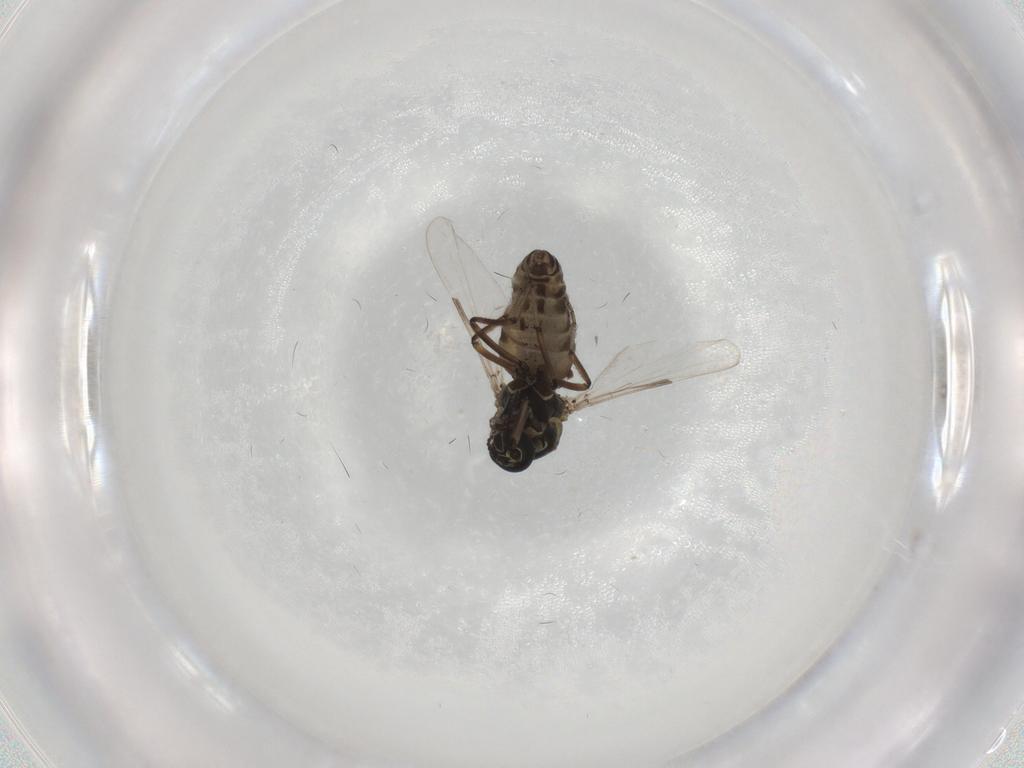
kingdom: Animalia
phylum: Arthropoda
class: Insecta
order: Diptera
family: Ceratopogonidae
